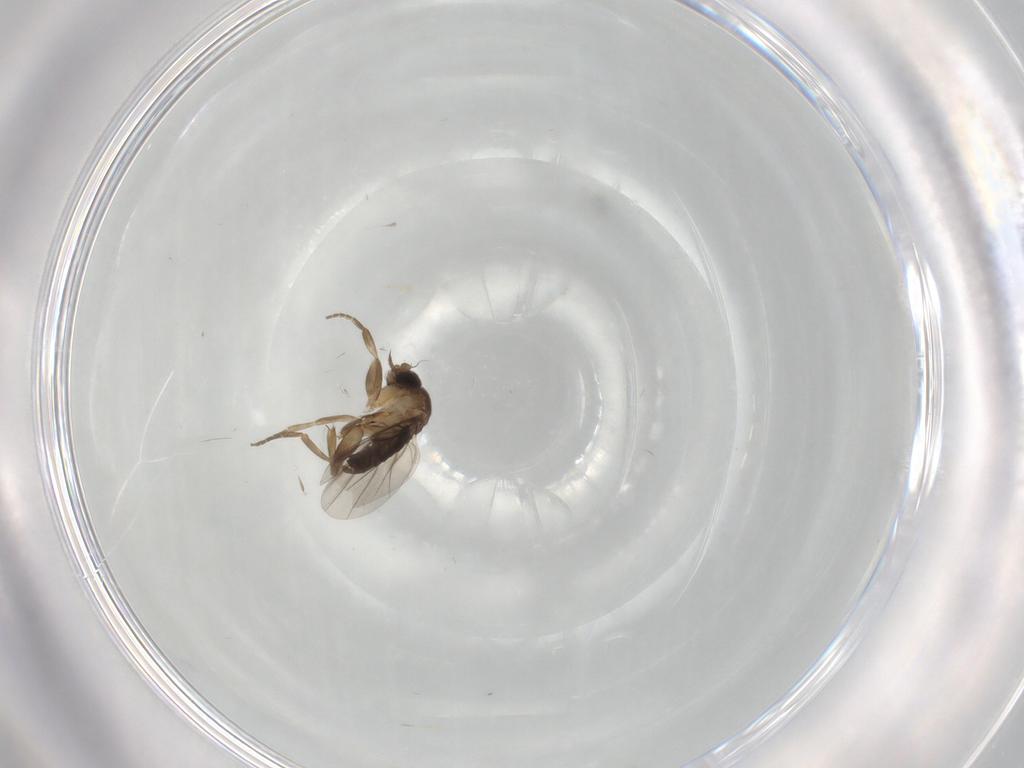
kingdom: Animalia
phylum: Arthropoda
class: Insecta
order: Diptera
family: Phoridae
